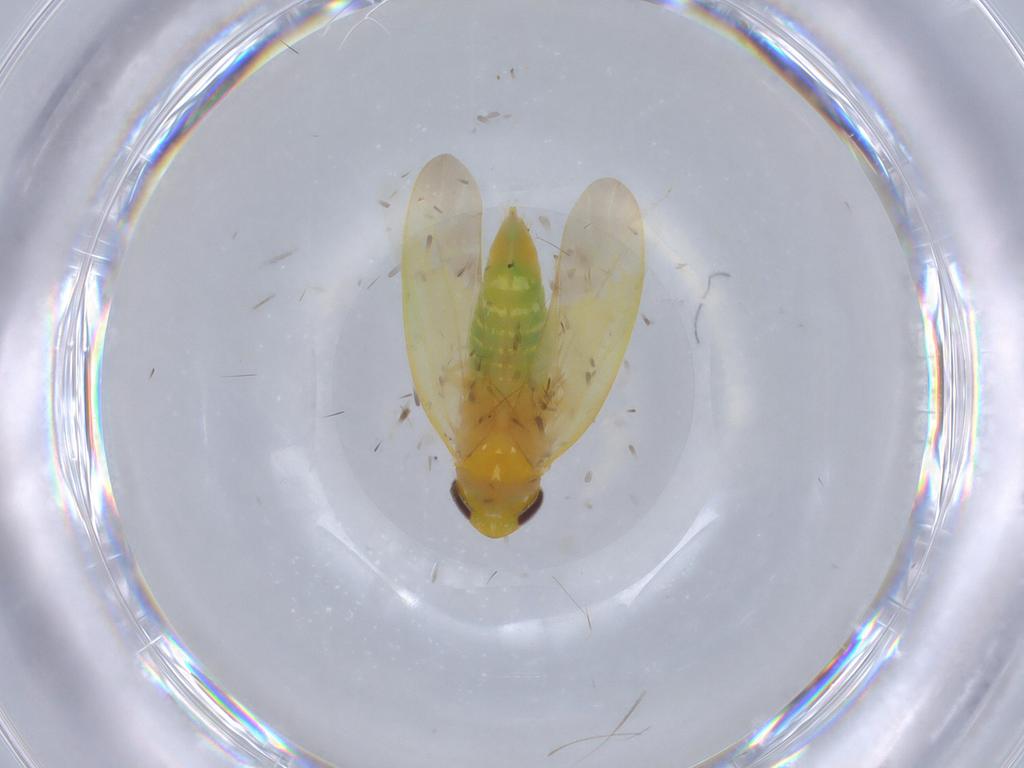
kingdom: Animalia
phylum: Arthropoda
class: Insecta
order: Hemiptera
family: Cicadellidae
